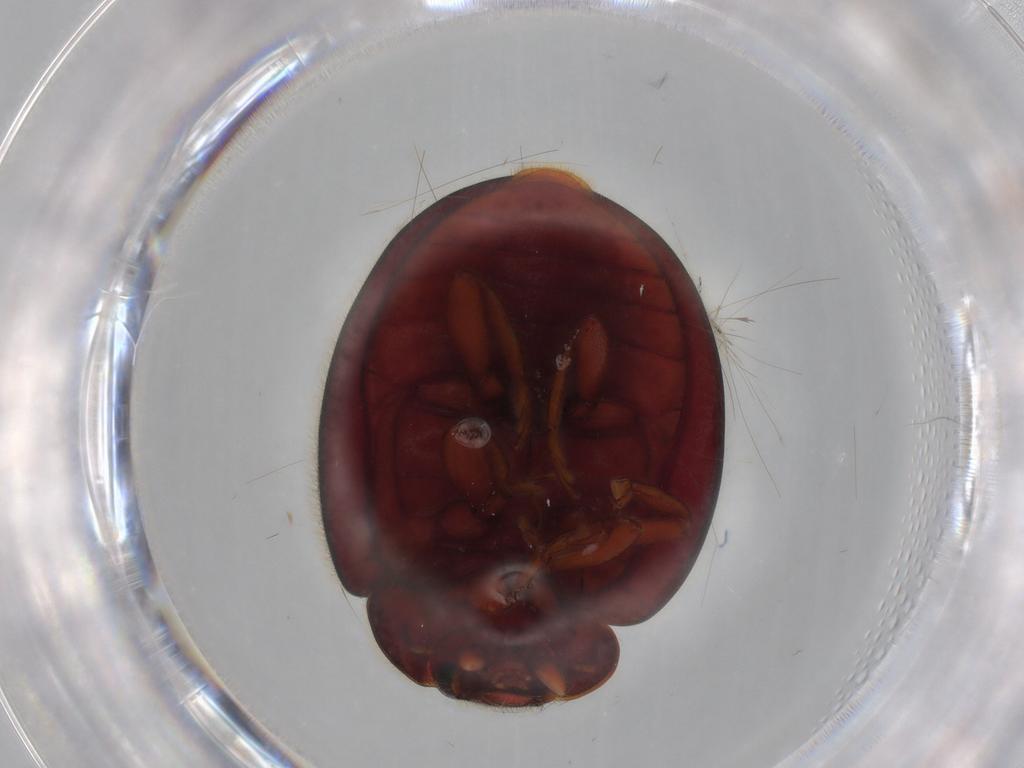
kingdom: Animalia
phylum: Arthropoda
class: Insecta
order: Coleoptera
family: Coccinellidae
